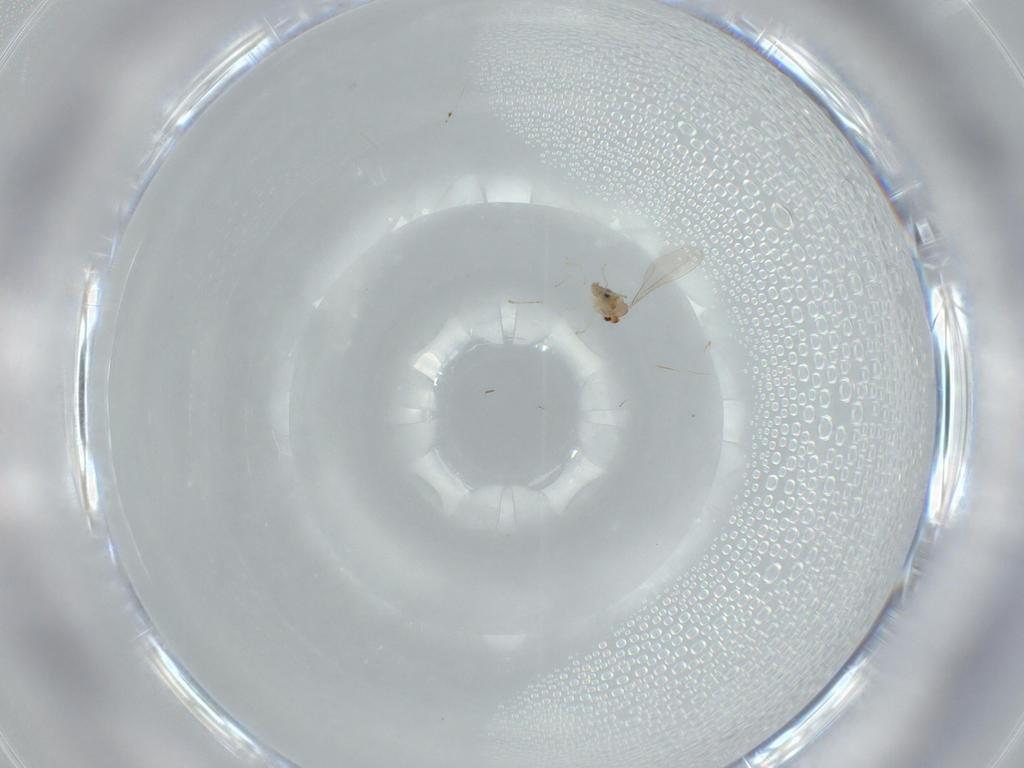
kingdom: Animalia
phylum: Arthropoda
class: Insecta
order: Diptera
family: Cecidomyiidae
